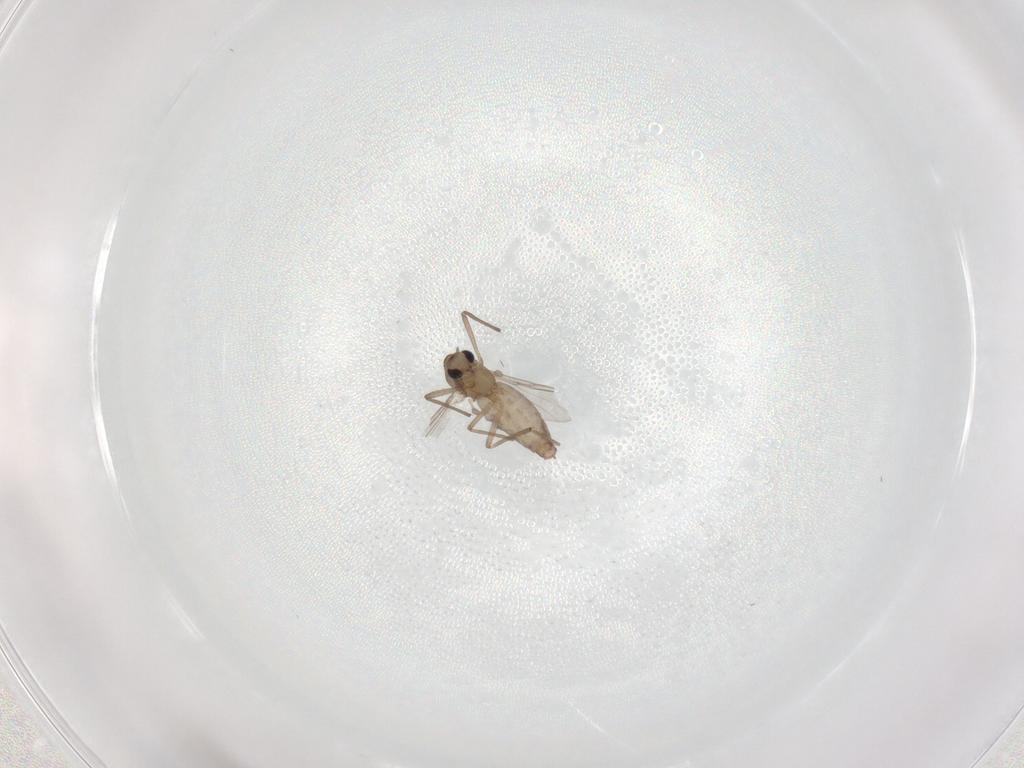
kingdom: Animalia
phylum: Arthropoda
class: Insecta
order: Diptera
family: Chironomidae
